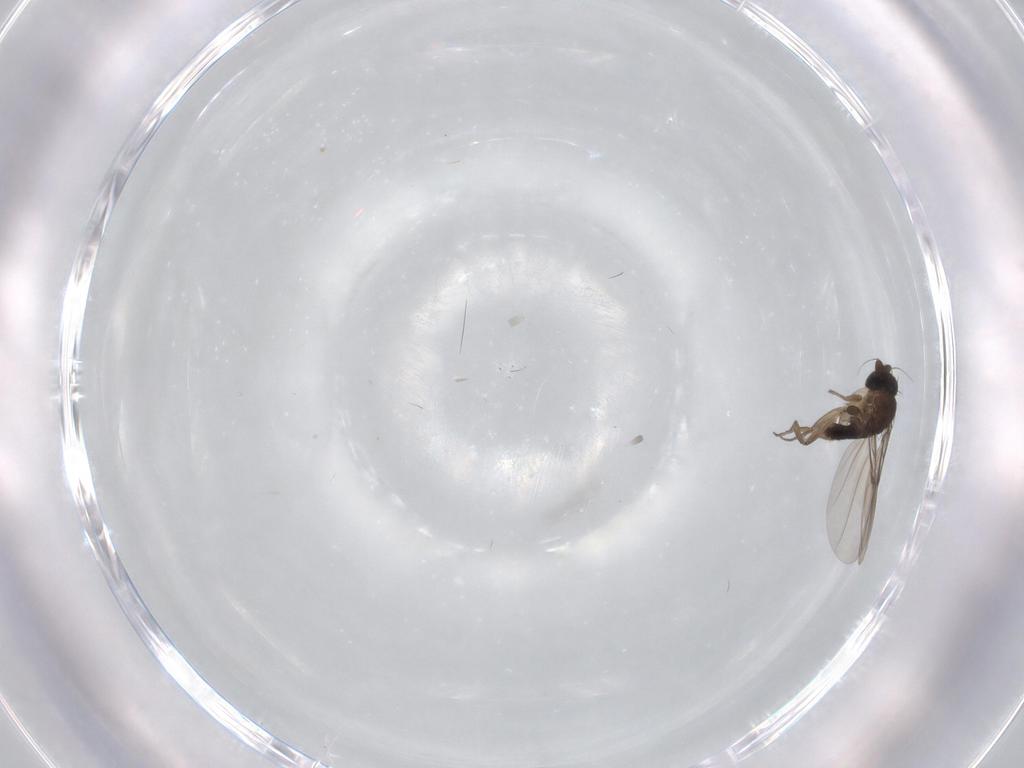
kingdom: Animalia
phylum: Arthropoda
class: Insecta
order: Diptera
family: Phoridae
